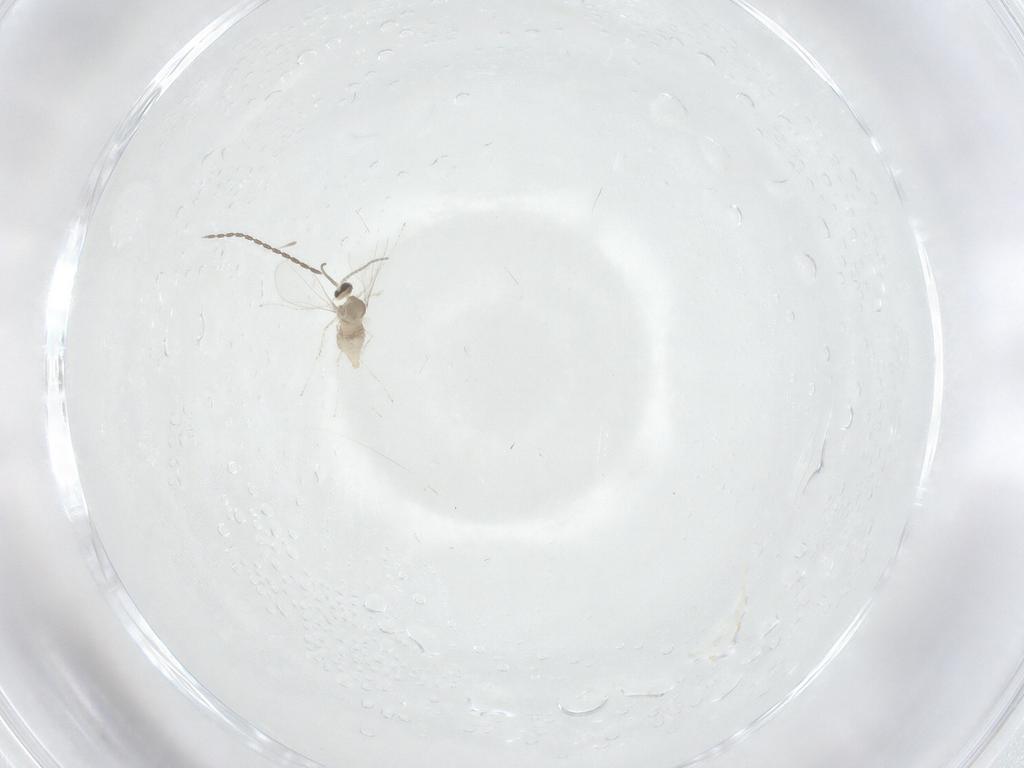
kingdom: Animalia
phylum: Arthropoda
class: Insecta
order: Diptera
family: Cecidomyiidae
